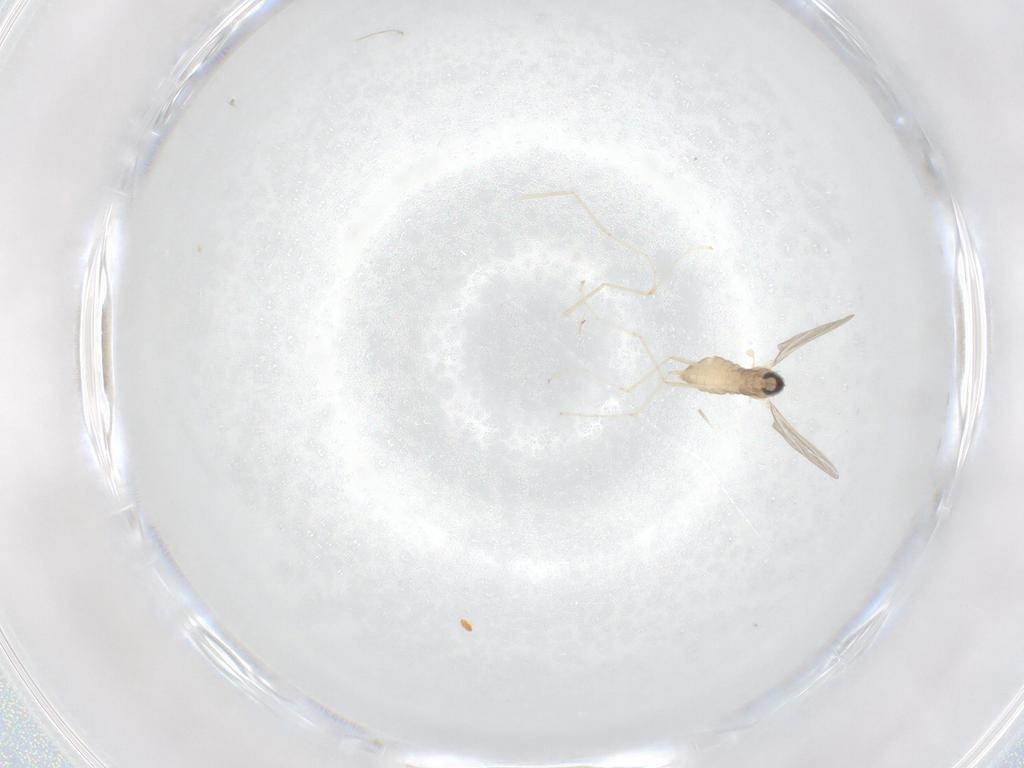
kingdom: Animalia
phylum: Arthropoda
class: Insecta
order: Diptera
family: Cecidomyiidae
